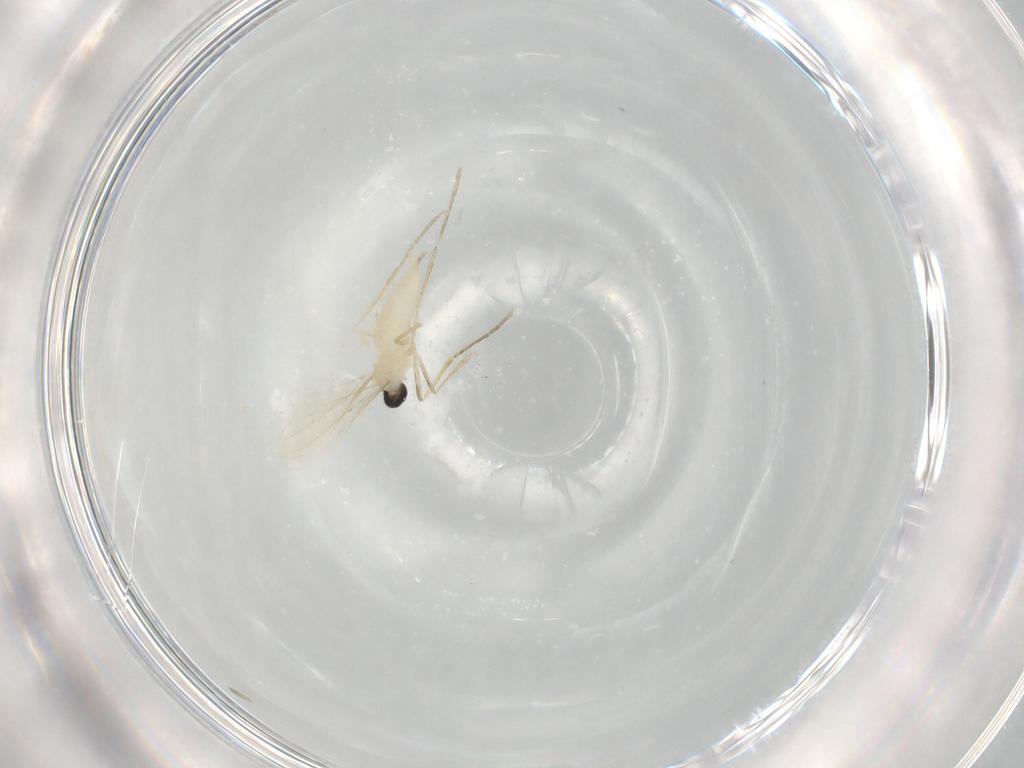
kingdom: Animalia
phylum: Arthropoda
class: Insecta
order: Diptera
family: Cecidomyiidae
